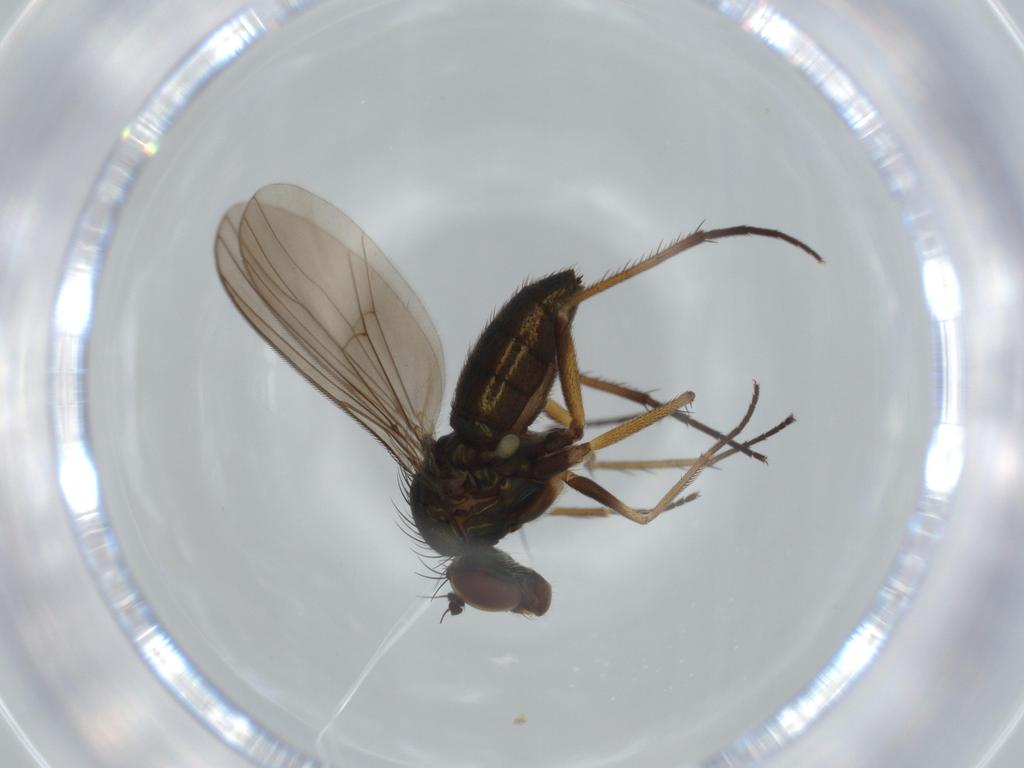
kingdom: Animalia
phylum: Arthropoda
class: Insecta
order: Diptera
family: Dolichopodidae
